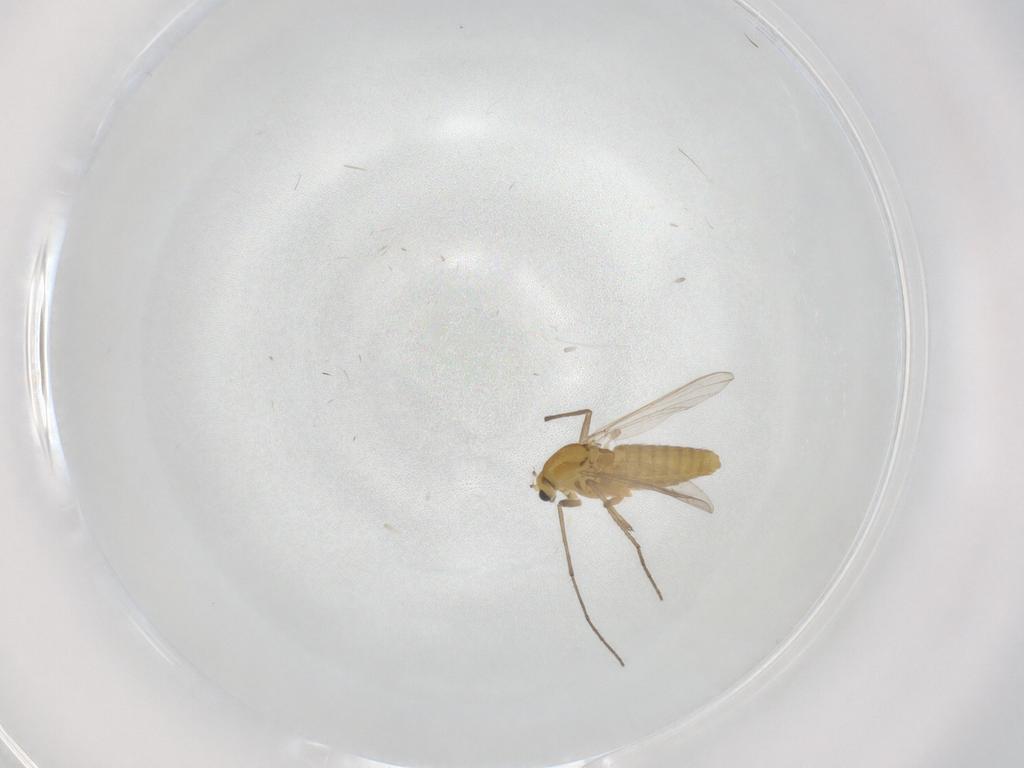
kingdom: Animalia
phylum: Arthropoda
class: Insecta
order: Diptera
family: Chironomidae
